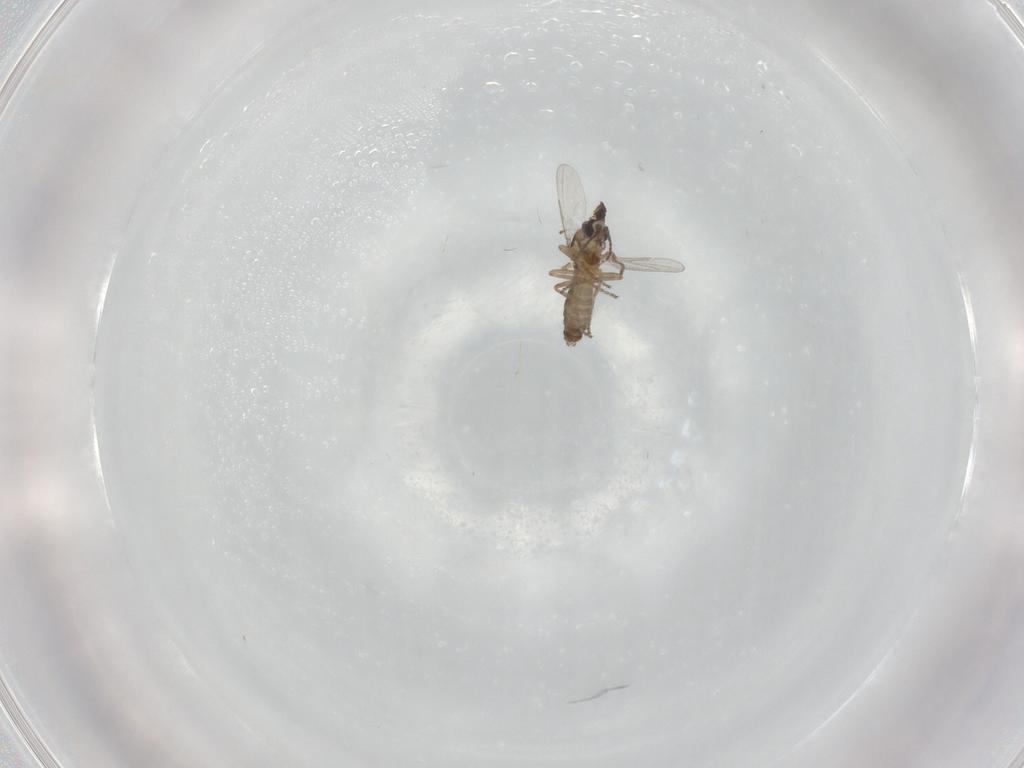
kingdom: Animalia
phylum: Arthropoda
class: Insecta
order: Diptera
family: Ceratopogonidae
